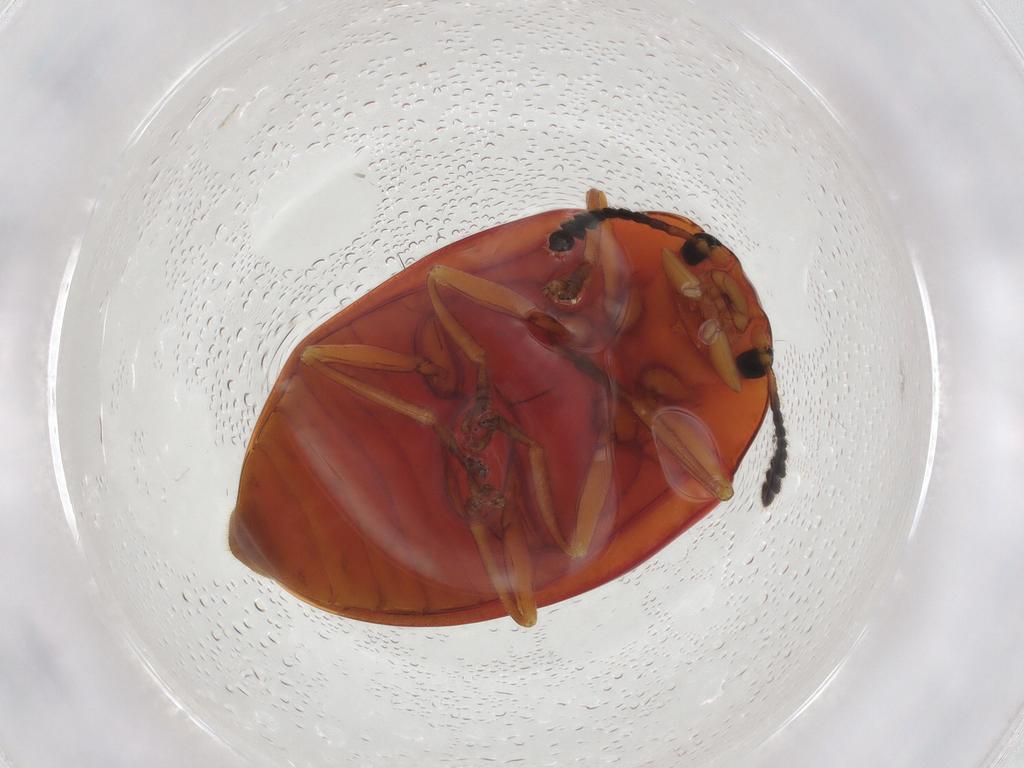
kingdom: Animalia
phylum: Arthropoda
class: Insecta
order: Coleoptera
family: Erotylidae
